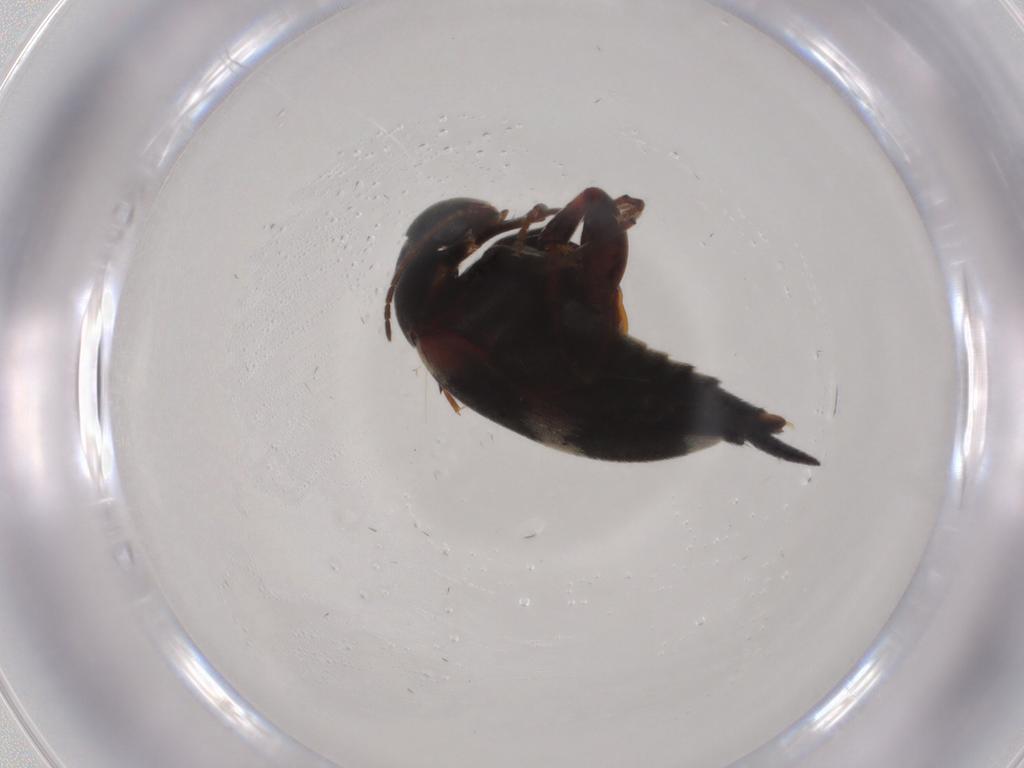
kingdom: Animalia
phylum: Arthropoda
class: Insecta
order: Coleoptera
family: Mordellidae
